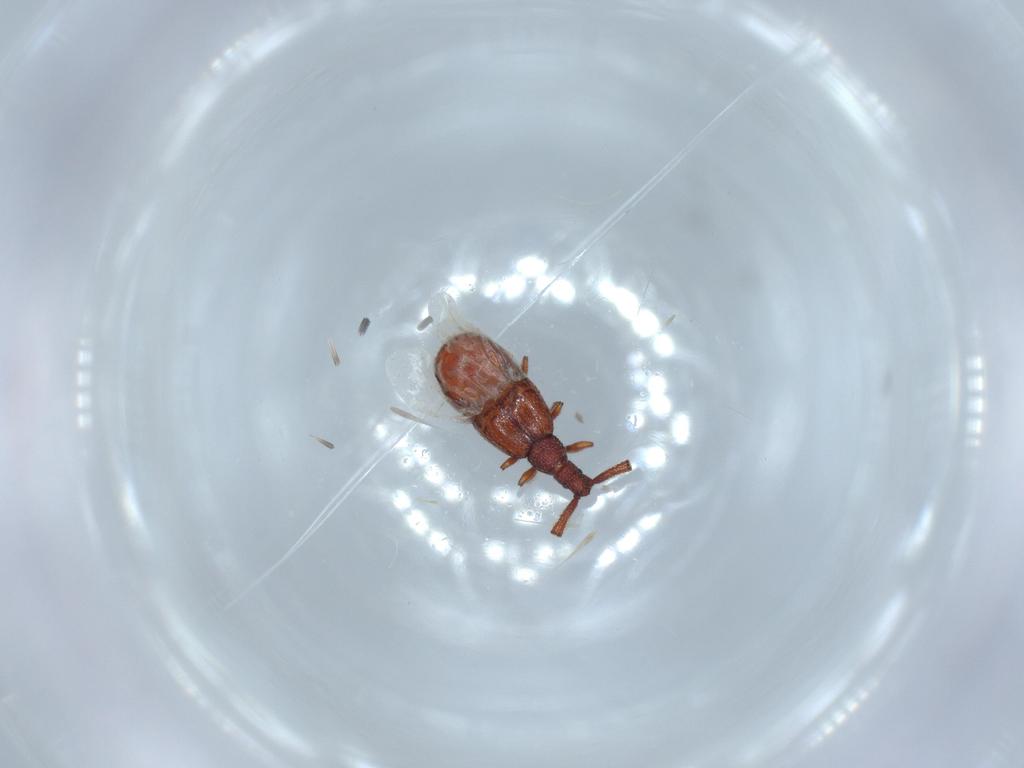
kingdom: Animalia
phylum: Arthropoda
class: Insecta
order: Coleoptera
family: Staphylinidae
